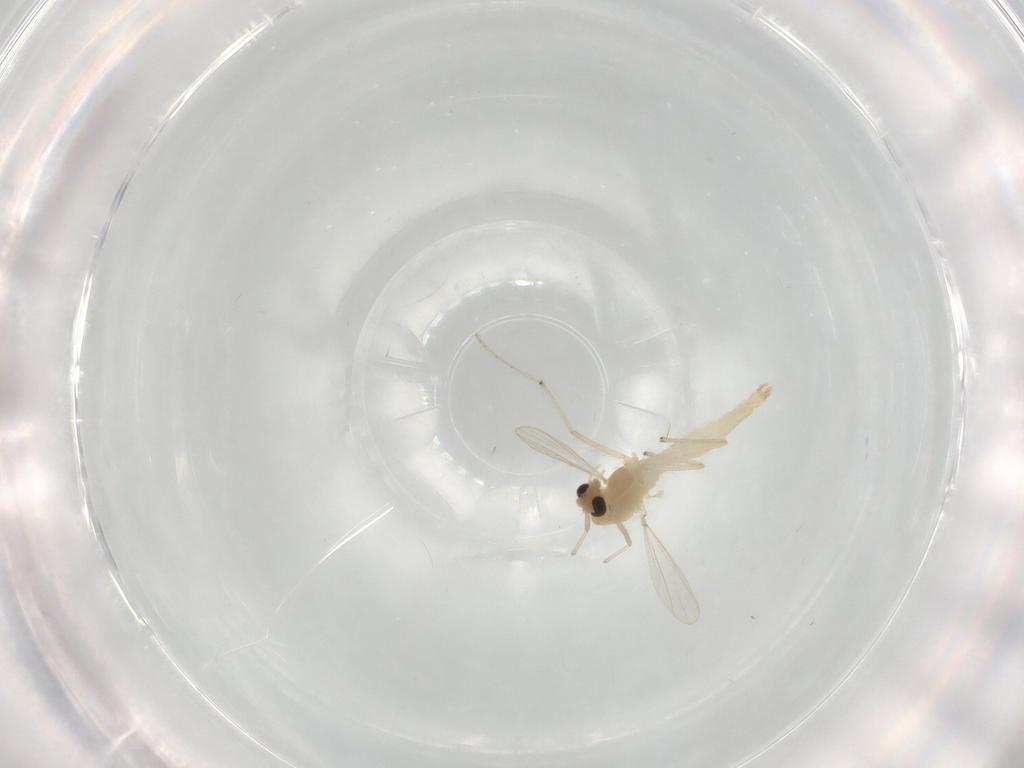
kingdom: Animalia
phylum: Arthropoda
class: Insecta
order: Diptera
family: Chironomidae
